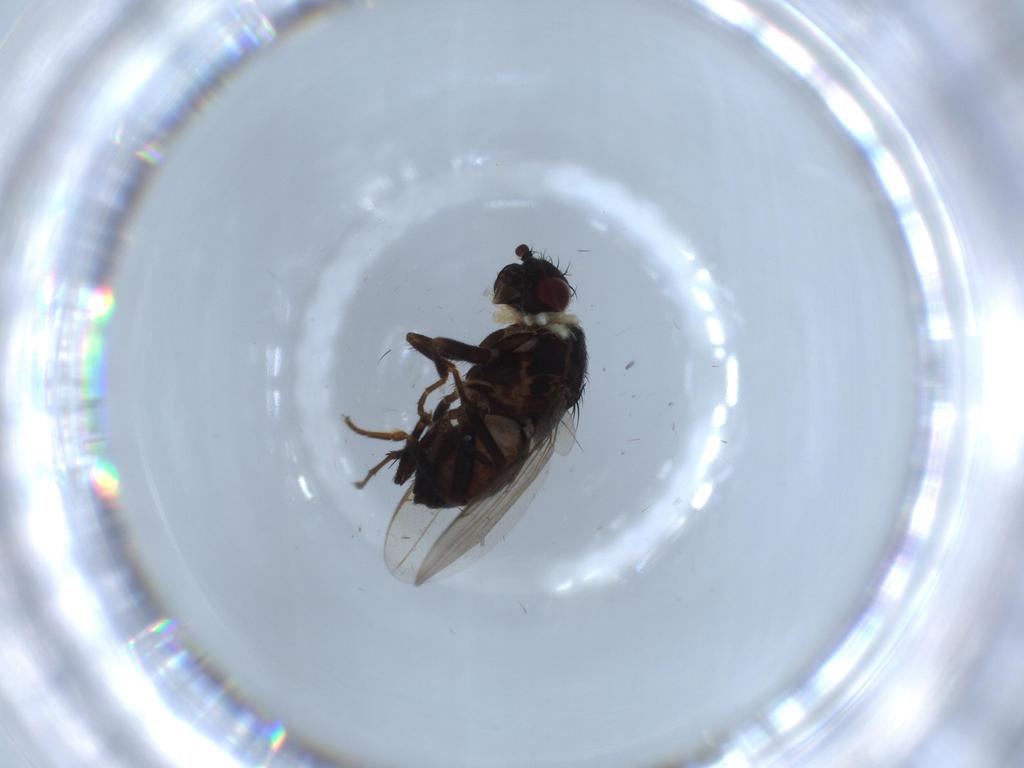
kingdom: Animalia
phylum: Arthropoda
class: Insecta
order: Diptera
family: Sphaeroceridae
